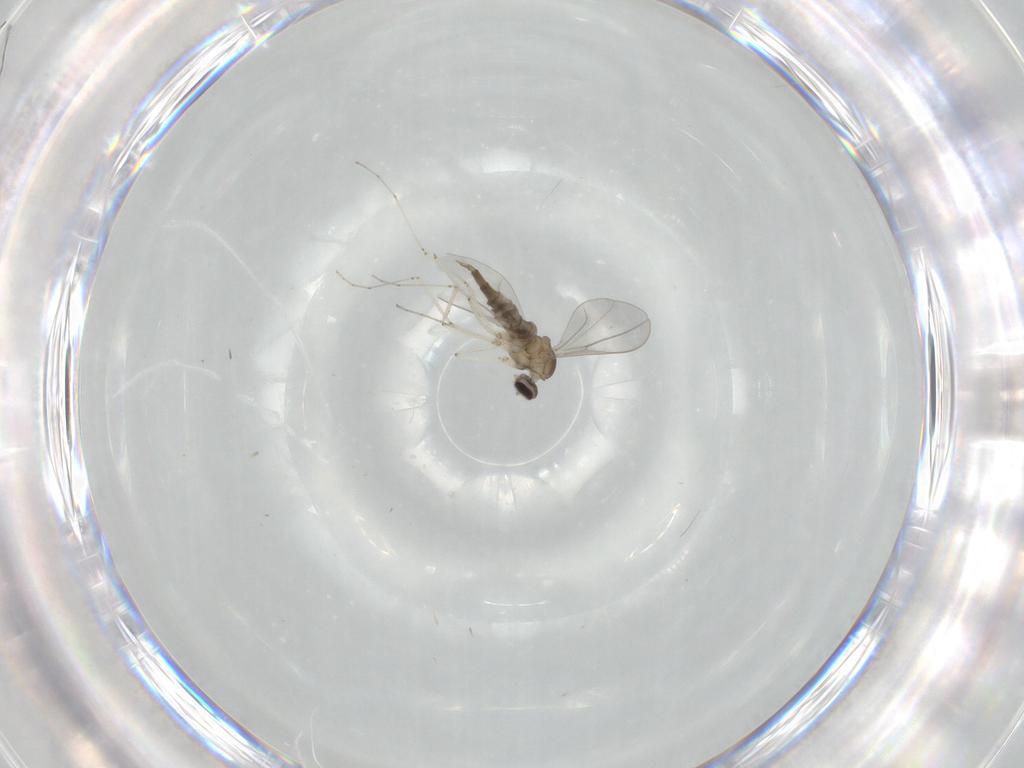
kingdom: Animalia
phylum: Arthropoda
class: Insecta
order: Diptera
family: Cecidomyiidae
